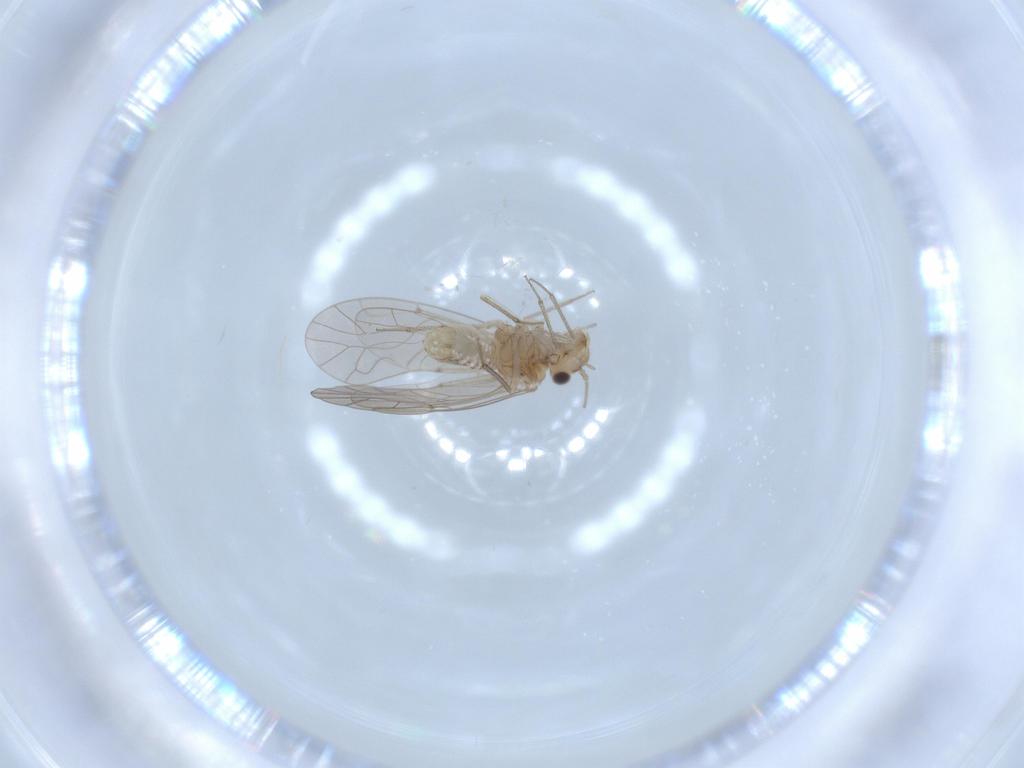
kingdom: Animalia
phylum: Arthropoda
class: Insecta
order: Psocodea
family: Lachesillidae
